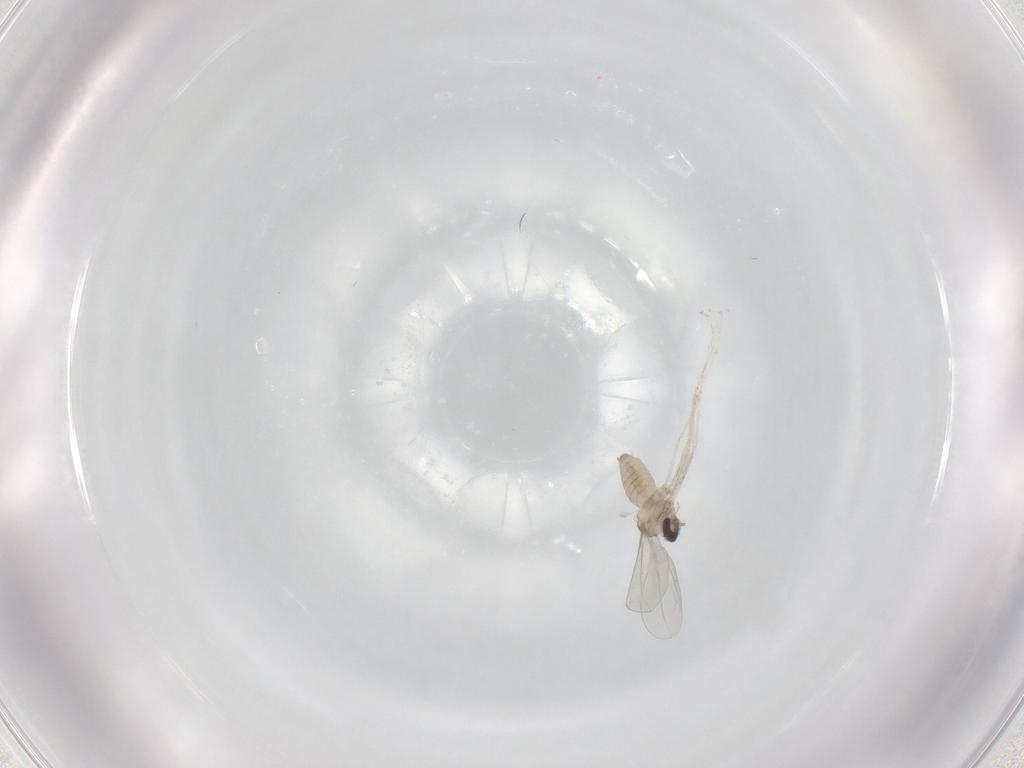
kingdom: Animalia
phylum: Arthropoda
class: Insecta
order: Diptera
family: Cecidomyiidae
